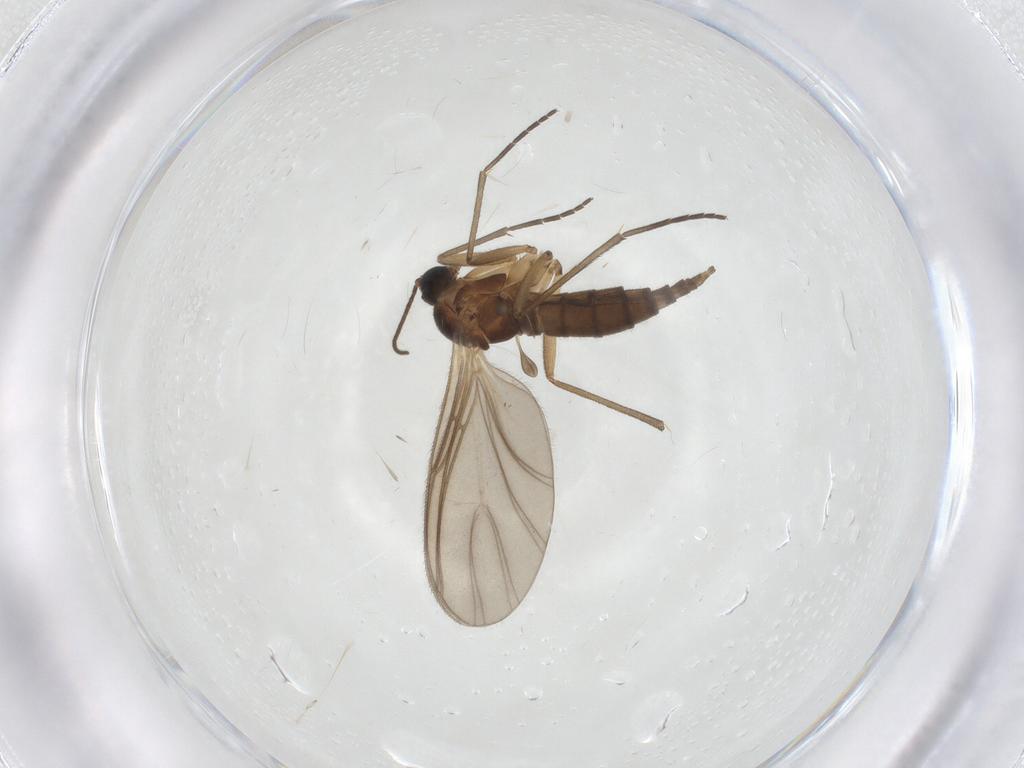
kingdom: Animalia
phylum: Arthropoda
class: Insecta
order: Diptera
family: Sciaridae
